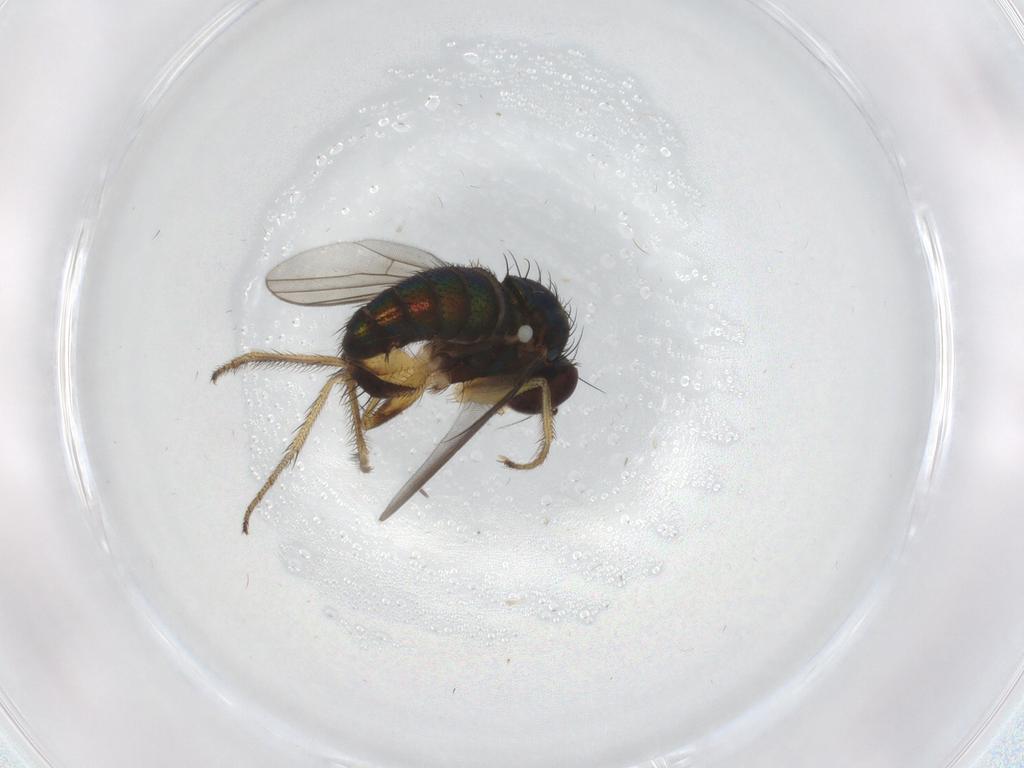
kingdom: Animalia
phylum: Arthropoda
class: Insecta
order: Diptera
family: Dolichopodidae
